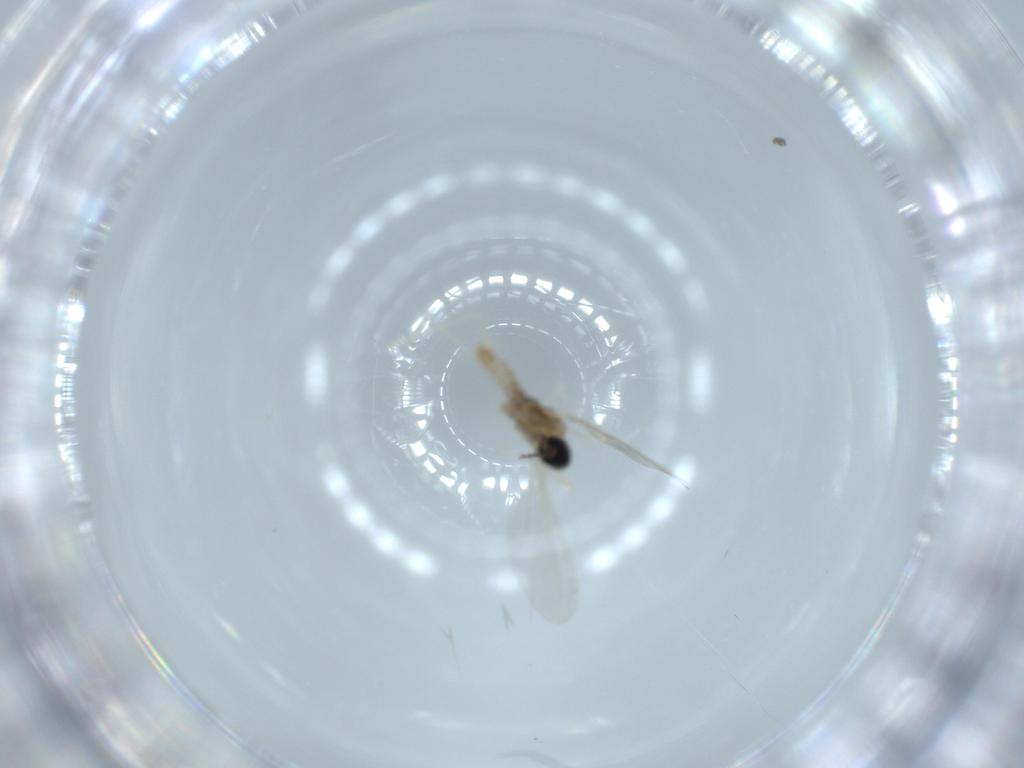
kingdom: Animalia
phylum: Arthropoda
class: Insecta
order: Diptera
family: Cecidomyiidae
